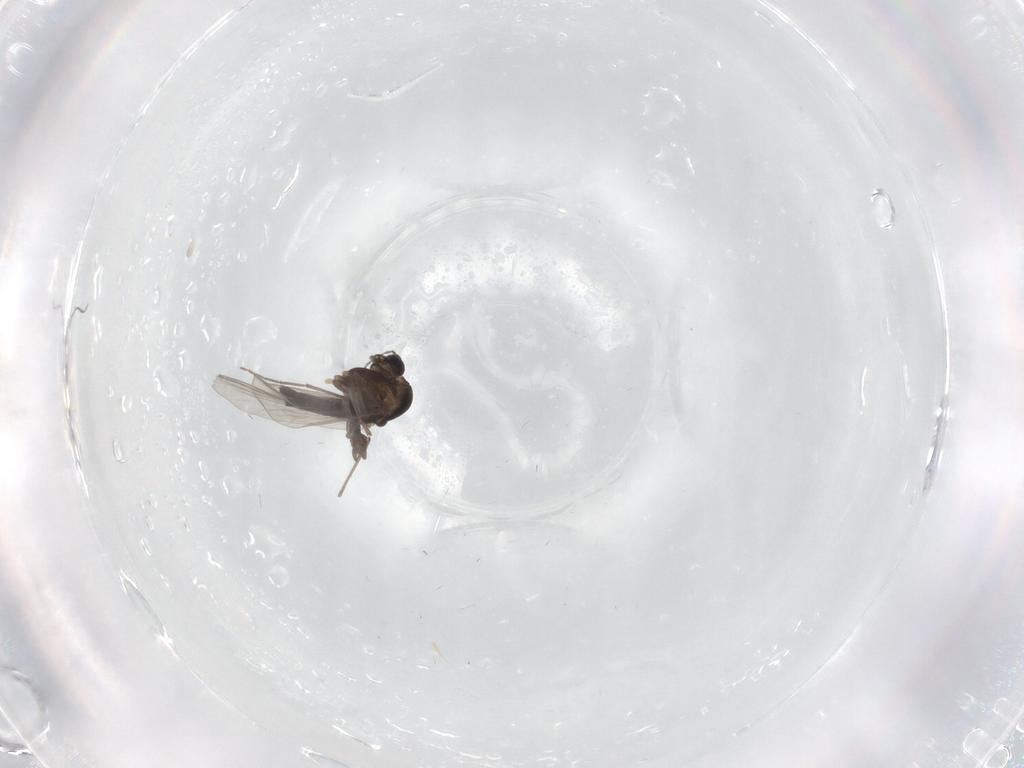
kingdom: Animalia
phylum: Arthropoda
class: Insecta
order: Diptera
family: Chironomidae
